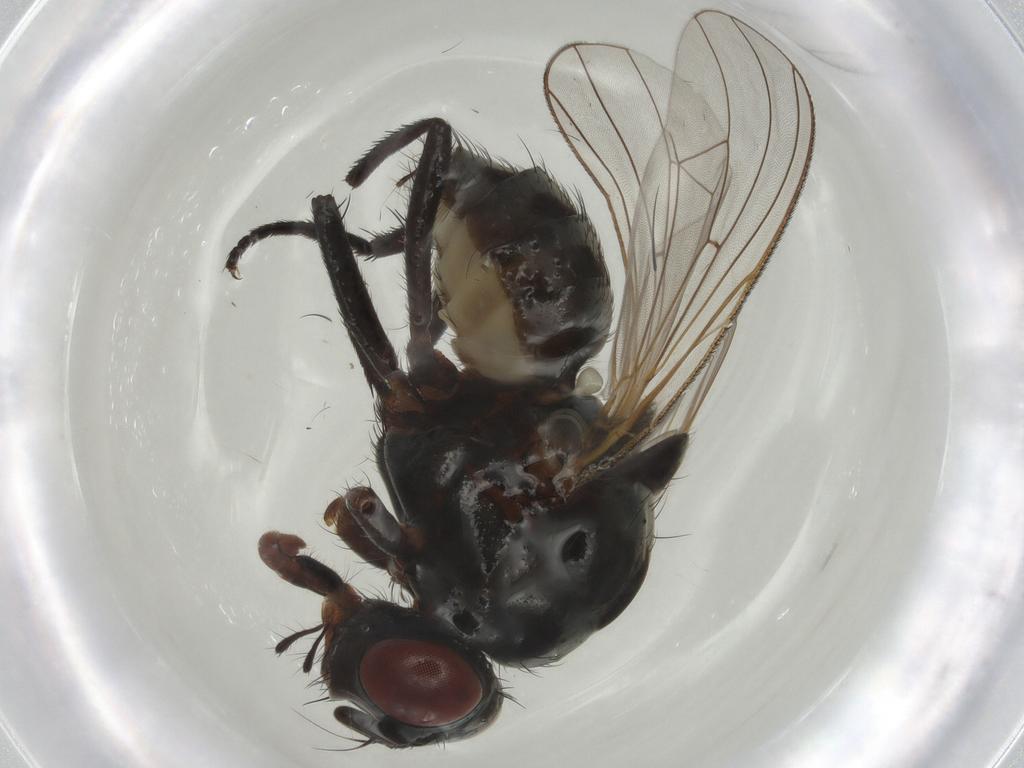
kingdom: Animalia
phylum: Arthropoda
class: Insecta
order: Diptera
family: Anthomyiidae
